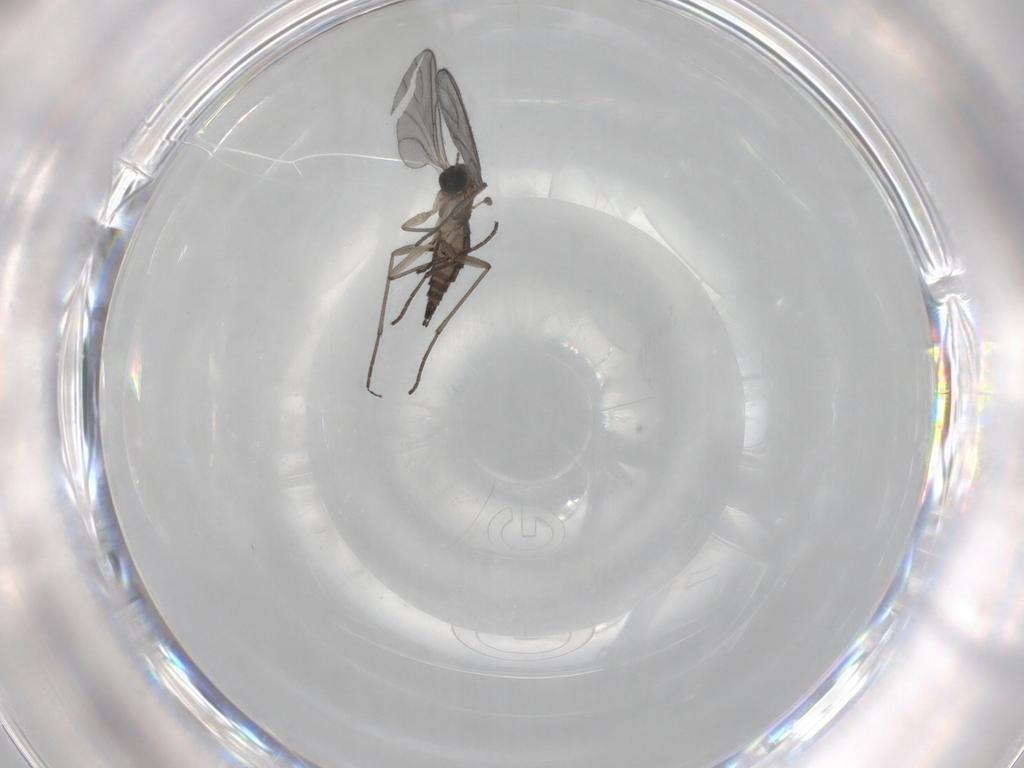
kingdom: Animalia
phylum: Arthropoda
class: Insecta
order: Diptera
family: Sciaridae
